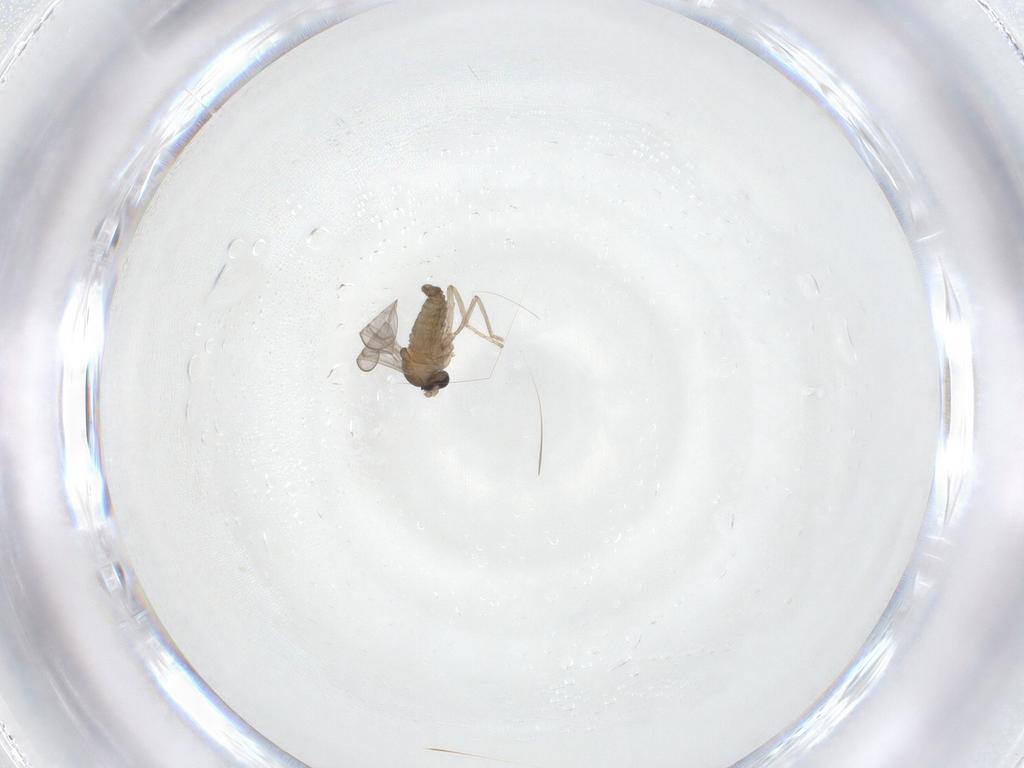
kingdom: Animalia
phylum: Arthropoda
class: Insecta
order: Diptera
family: Cecidomyiidae
